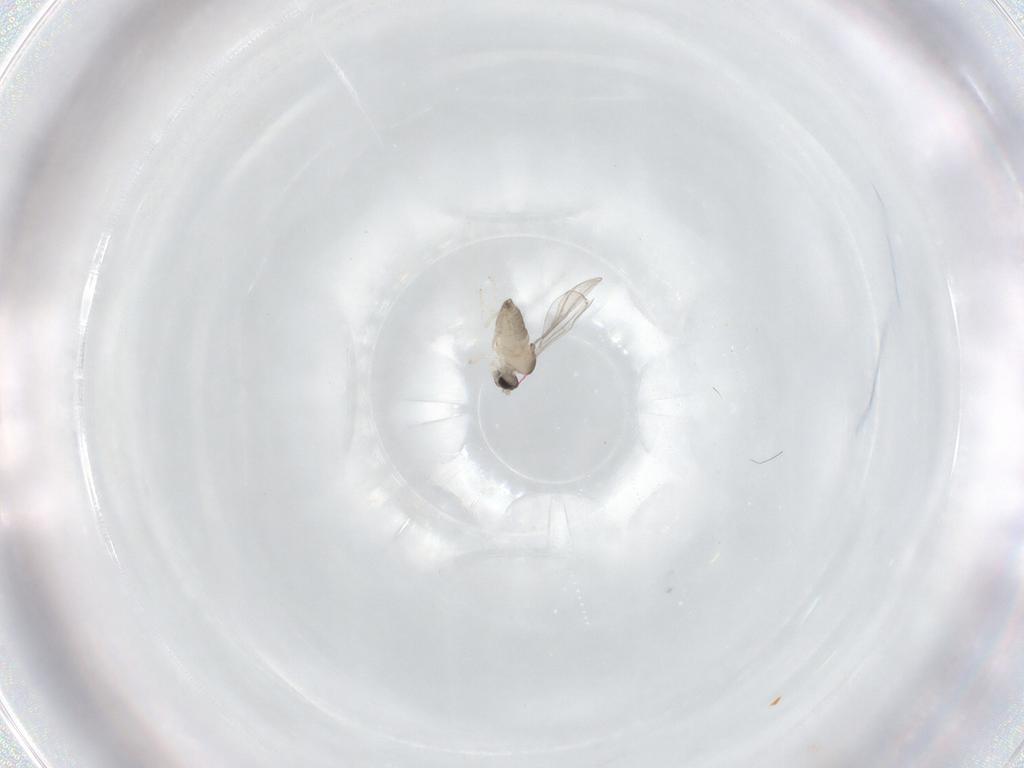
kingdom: Animalia
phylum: Arthropoda
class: Insecta
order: Diptera
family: Cecidomyiidae
